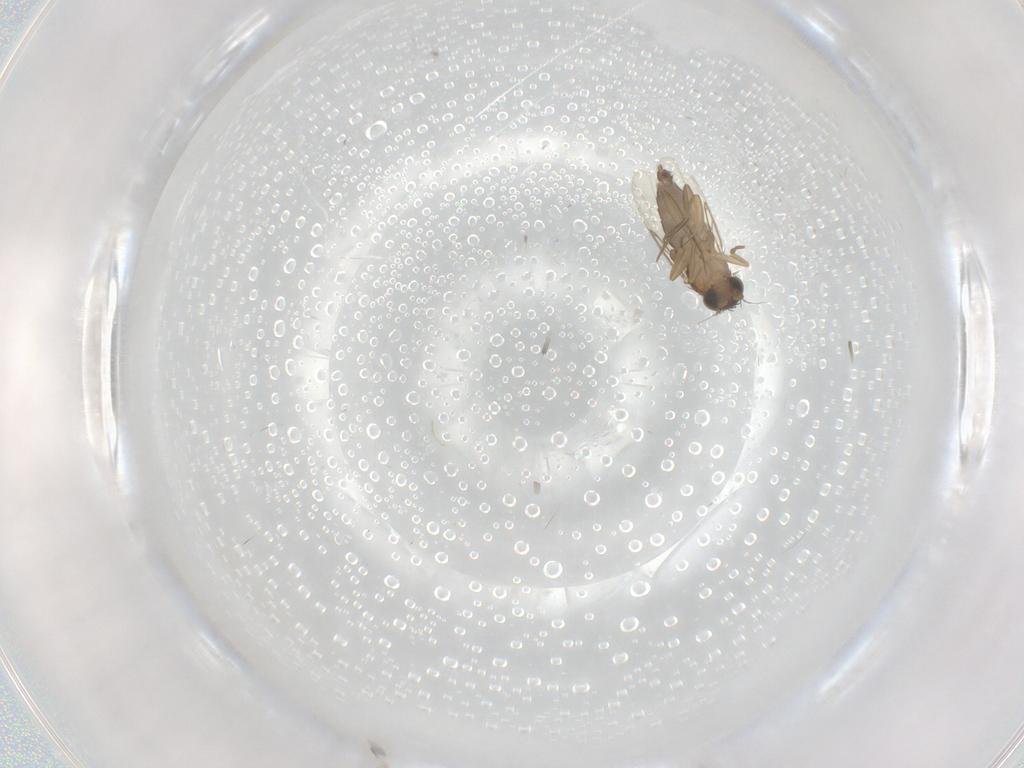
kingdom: Animalia
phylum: Arthropoda
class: Insecta
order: Diptera
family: Phoridae
